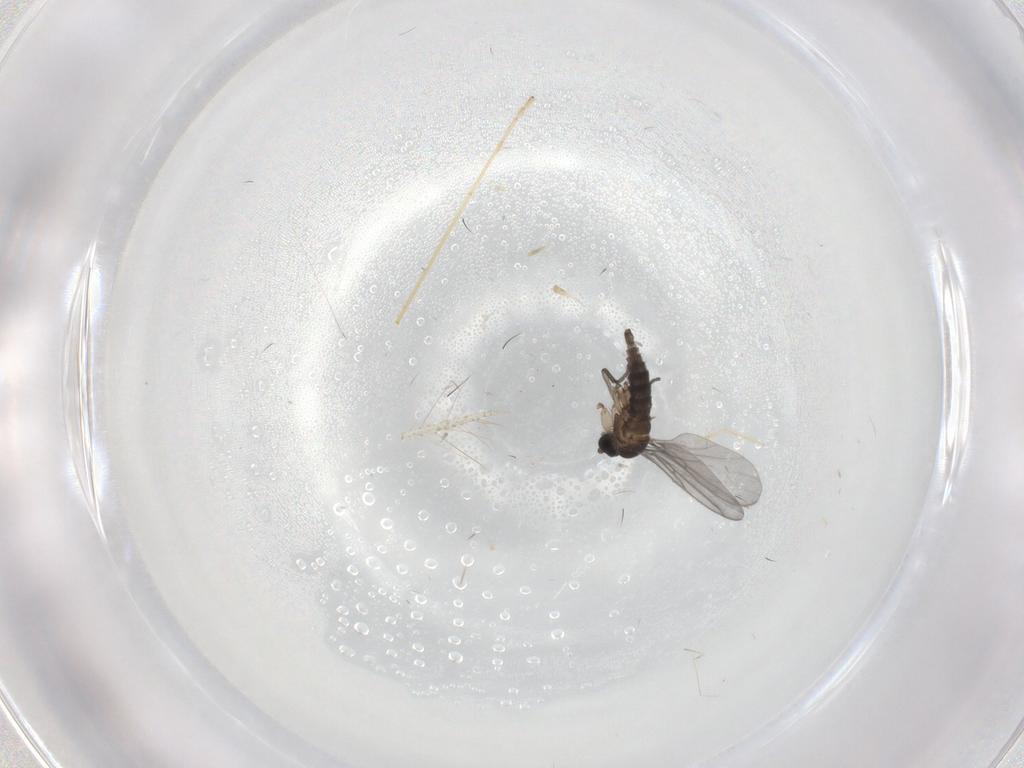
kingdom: Animalia
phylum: Arthropoda
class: Insecta
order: Diptera
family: Sciaridae
